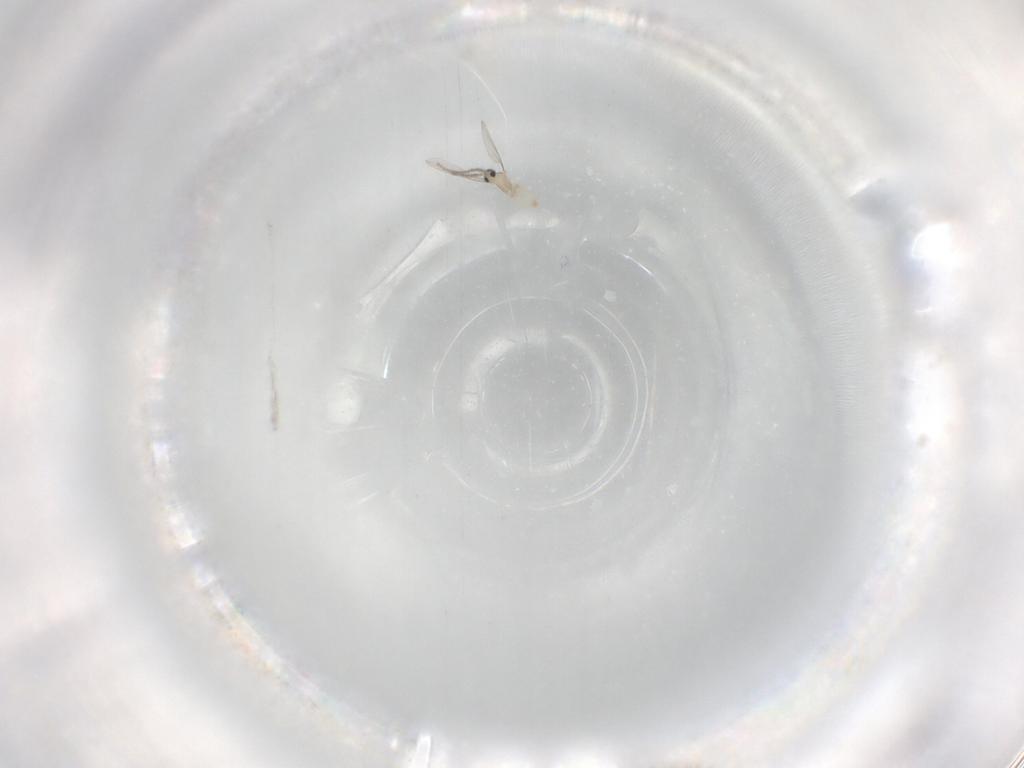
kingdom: Animalia
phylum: Arthropoda
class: Insecta
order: Diptera
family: Cecidomyiidae
